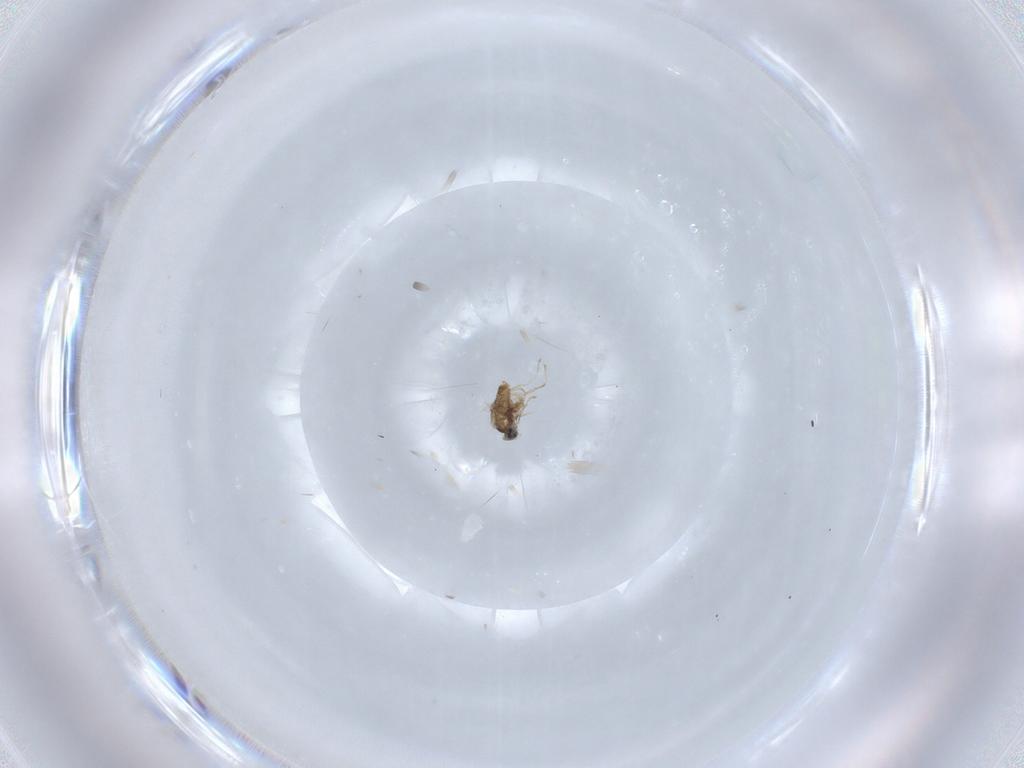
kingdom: Animalia
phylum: Arthropoda
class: Insecta
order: Diptera
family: Cecidomyiidae
